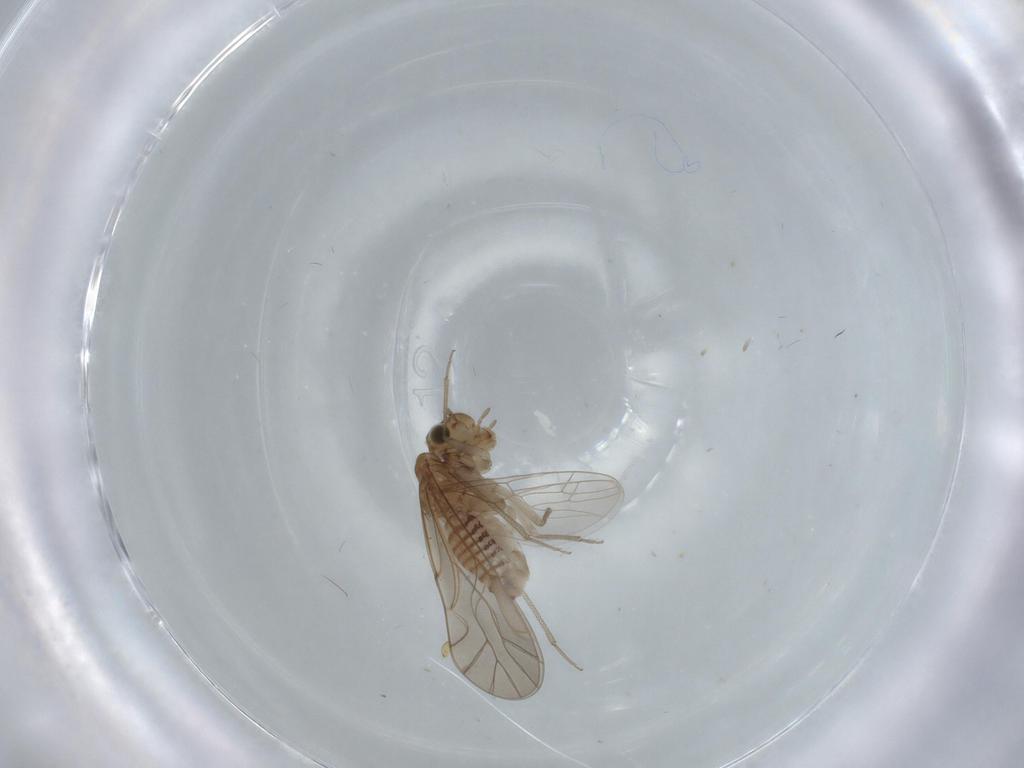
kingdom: Animalia
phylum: Arthropoda
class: Insecta
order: Psocodea
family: Lachesillidae
